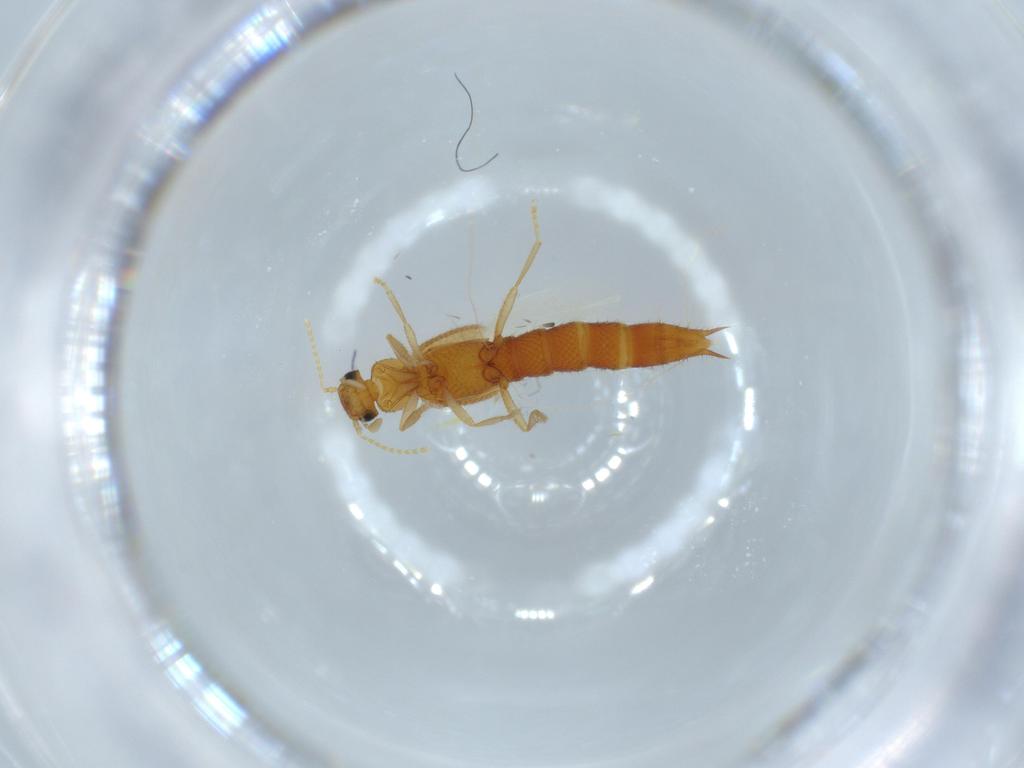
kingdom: Animalia
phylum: Arthropoda
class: Insecta
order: Coleoptera
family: Staphylinidae
